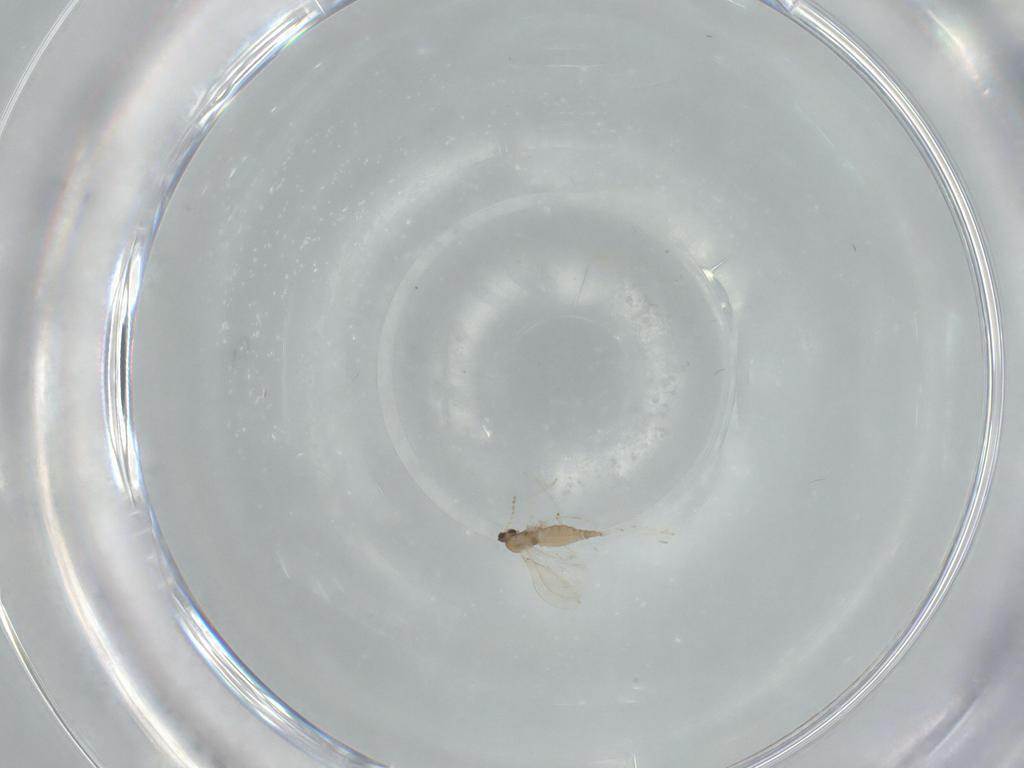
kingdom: Animalia
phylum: Arthropoda
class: Insecta
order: Diptera
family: Cecidomyiidae
